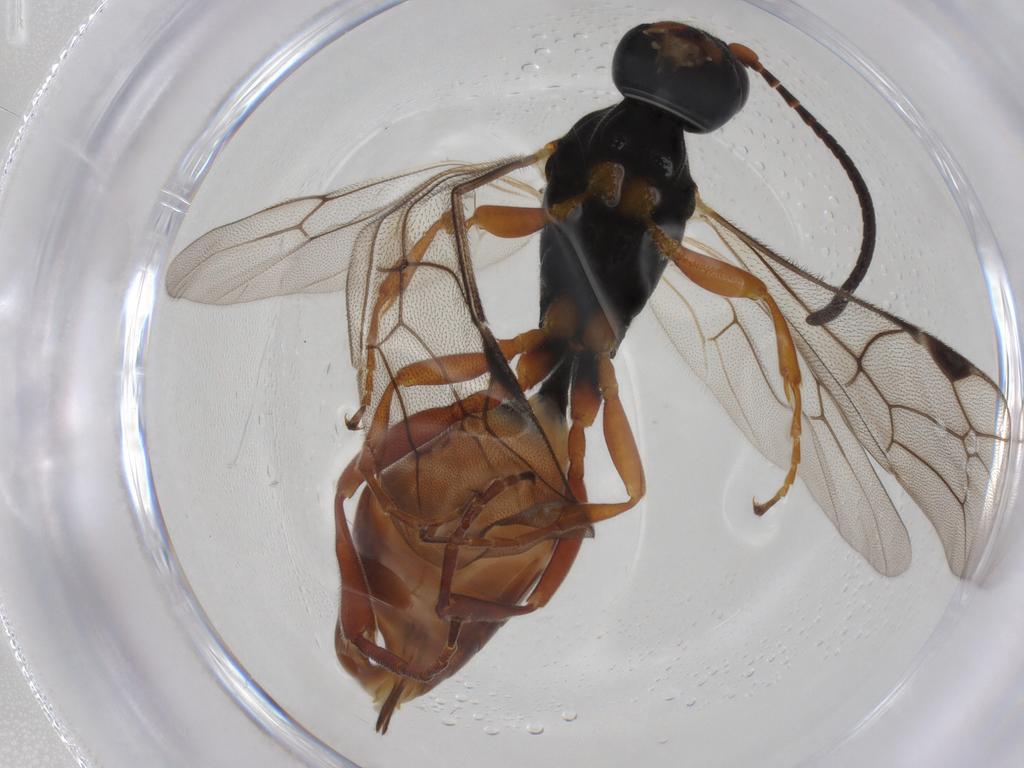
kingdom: Animalia
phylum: Arthropoda
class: Insecta
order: Hymenoptera
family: Ichneumonidae
